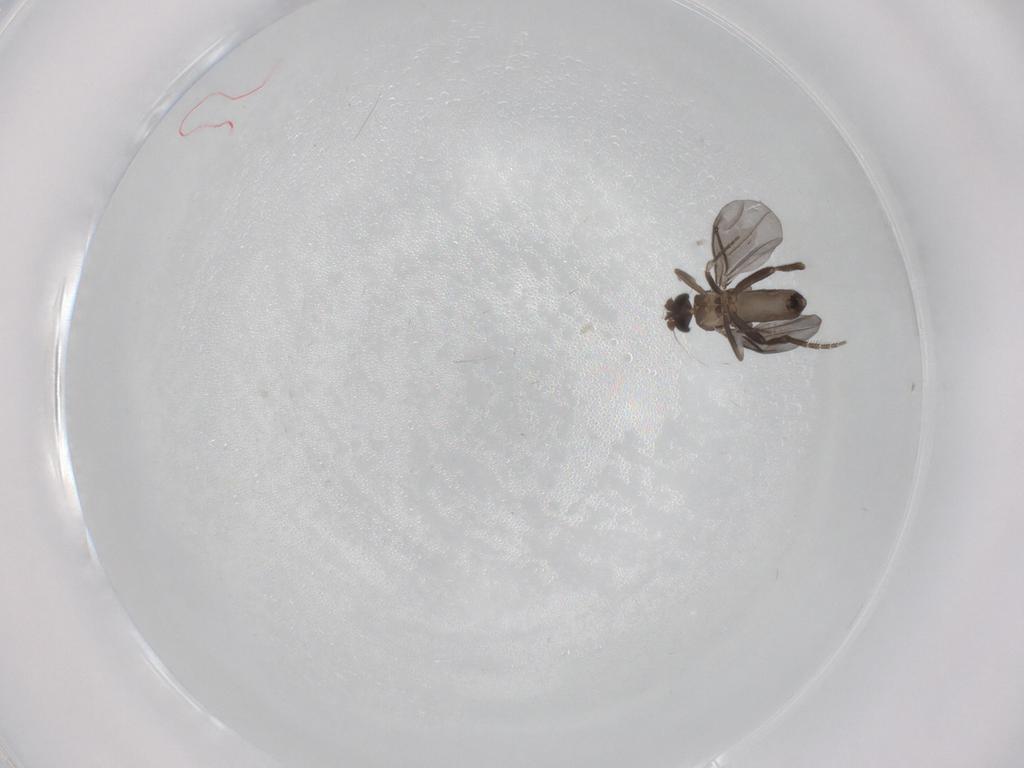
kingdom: Animalia
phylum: Arthropoda
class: Insecta
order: Diptera
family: Phoridae
